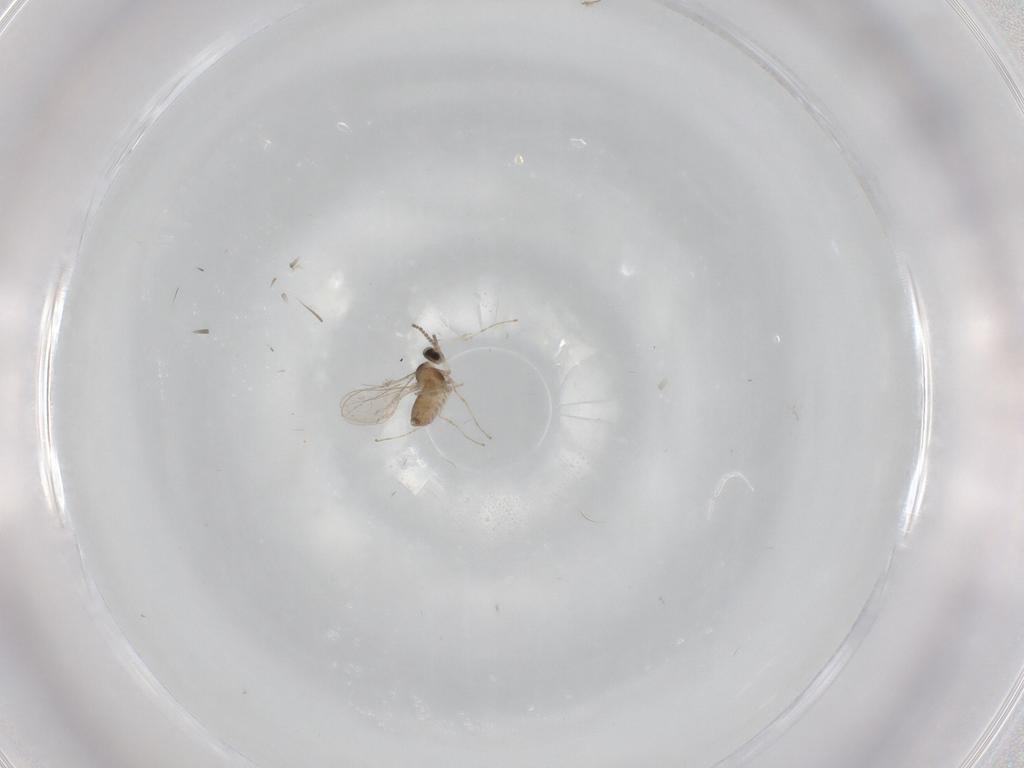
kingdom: Animalia
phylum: Arthropoda
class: Insecta
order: Diptera
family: Cecidomyiidae
